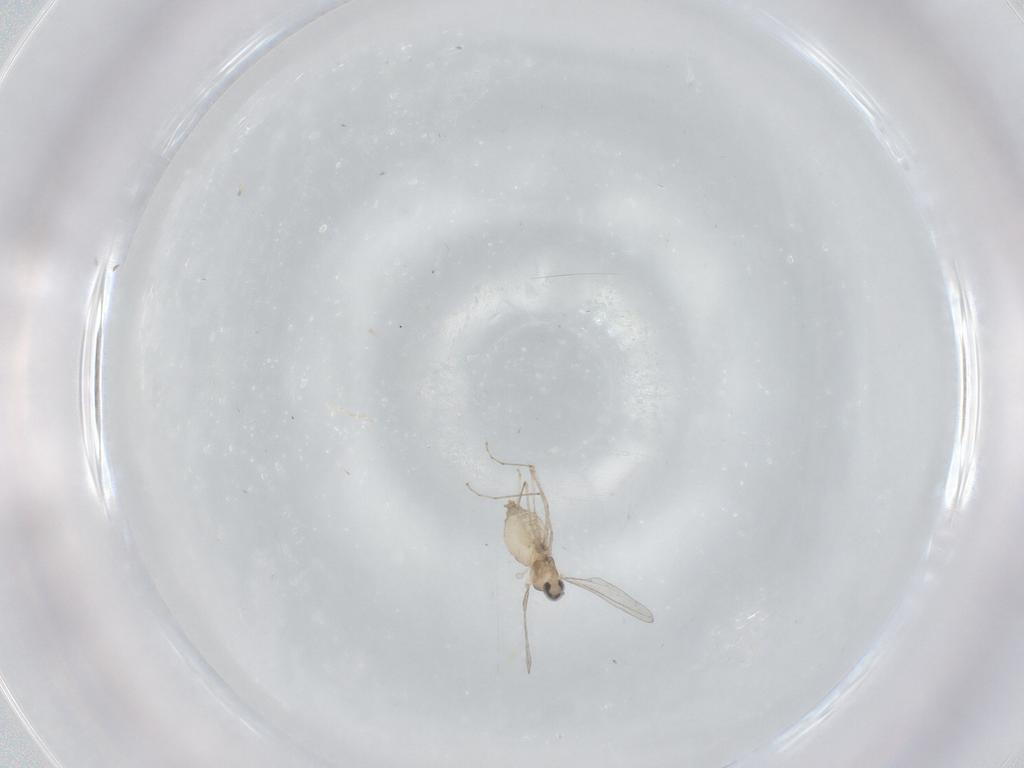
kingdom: Animalia
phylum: Arthropoda
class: Insecta
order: Diptera
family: Cecidomyiidae
